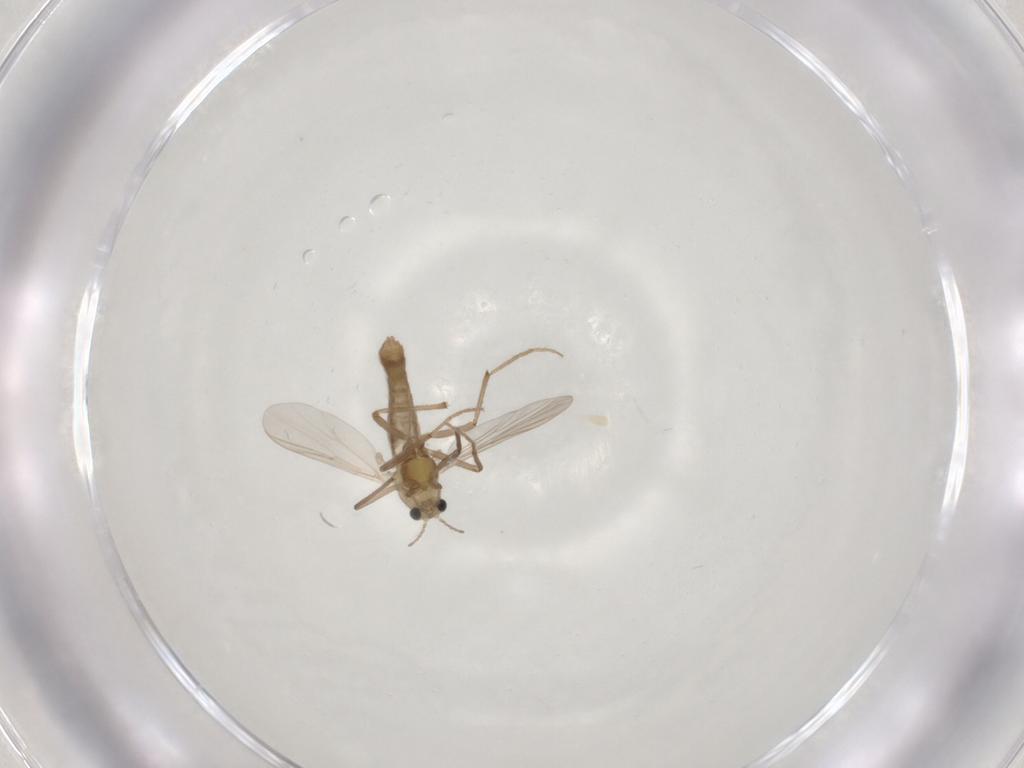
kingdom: Animalia
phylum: Arthropoda
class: Insecta
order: Diptera
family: Chironomidae
